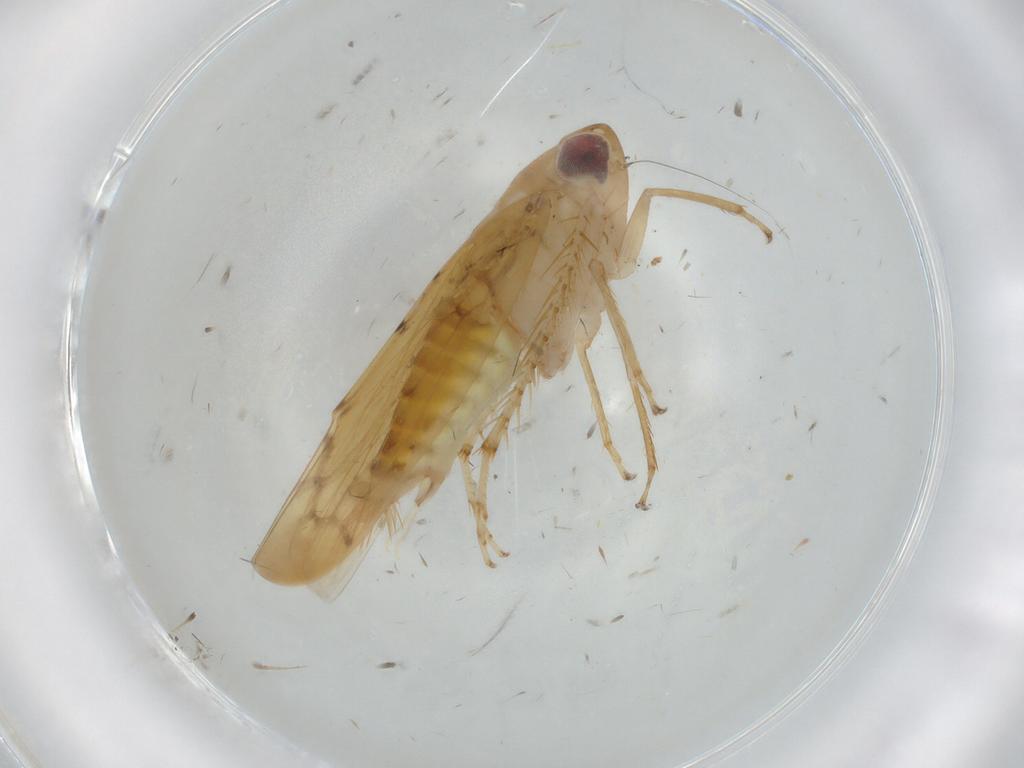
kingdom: Animalia
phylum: Arthropoda
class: Insecta
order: Hemiptera
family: Cicadellidae
